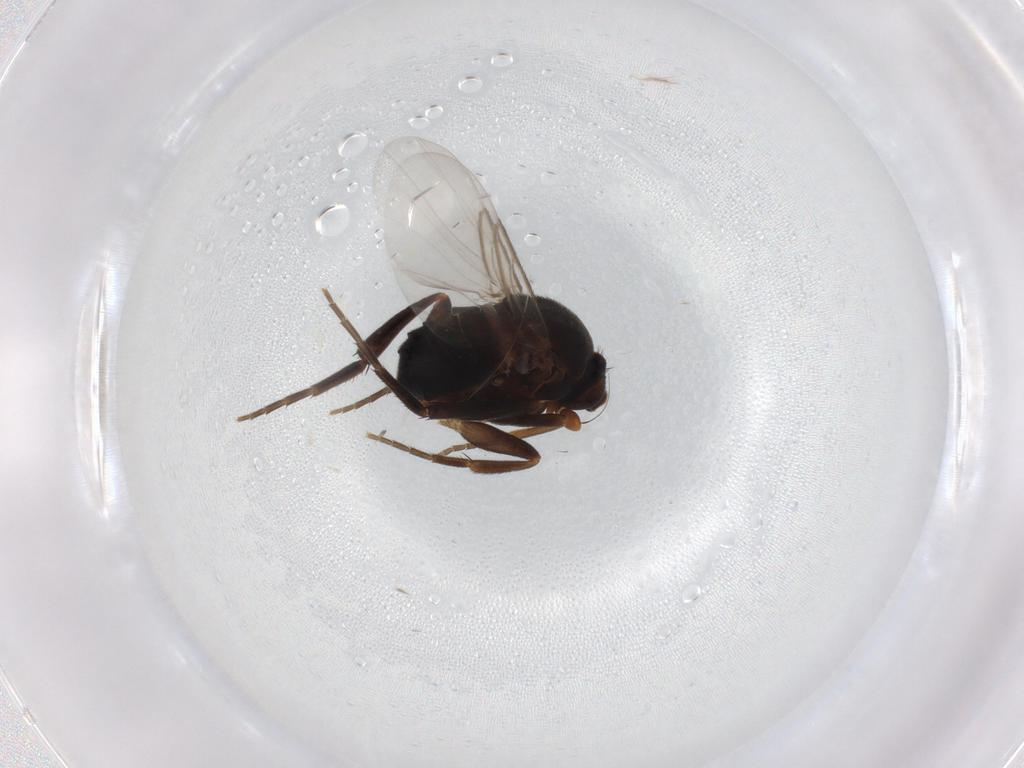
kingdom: Animalia
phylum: Arthropoda
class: Insecta
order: Diptera
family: Phoridae
